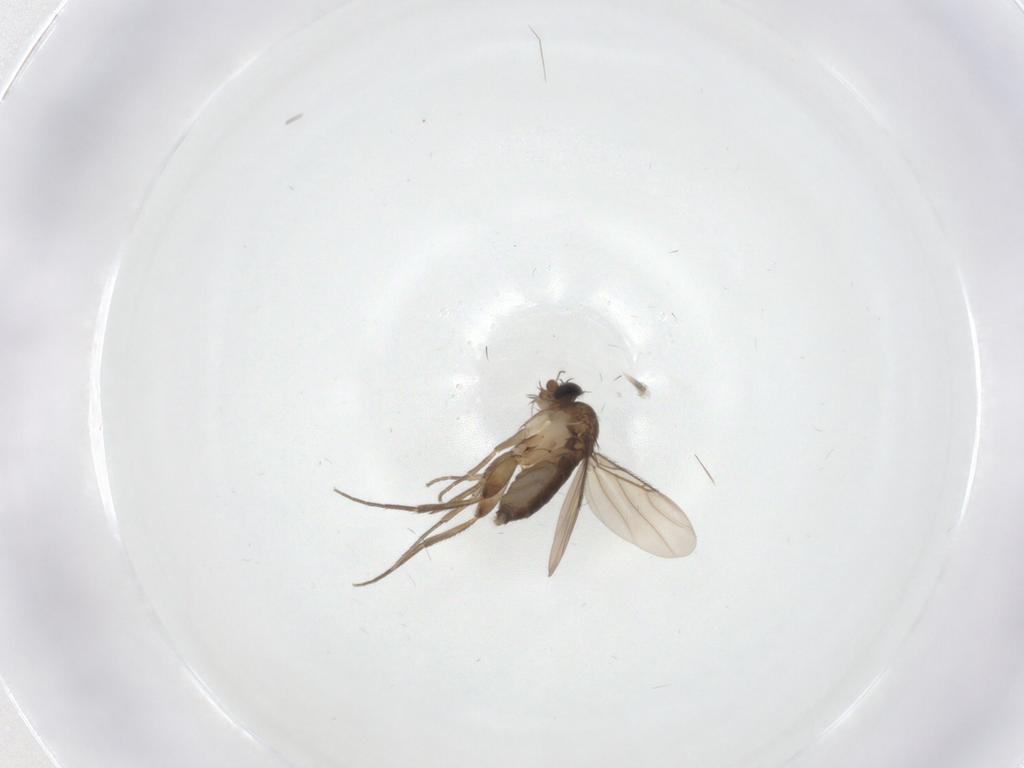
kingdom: Animalia
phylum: Arthropoda
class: Insecta
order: Diptera
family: Phoridae
